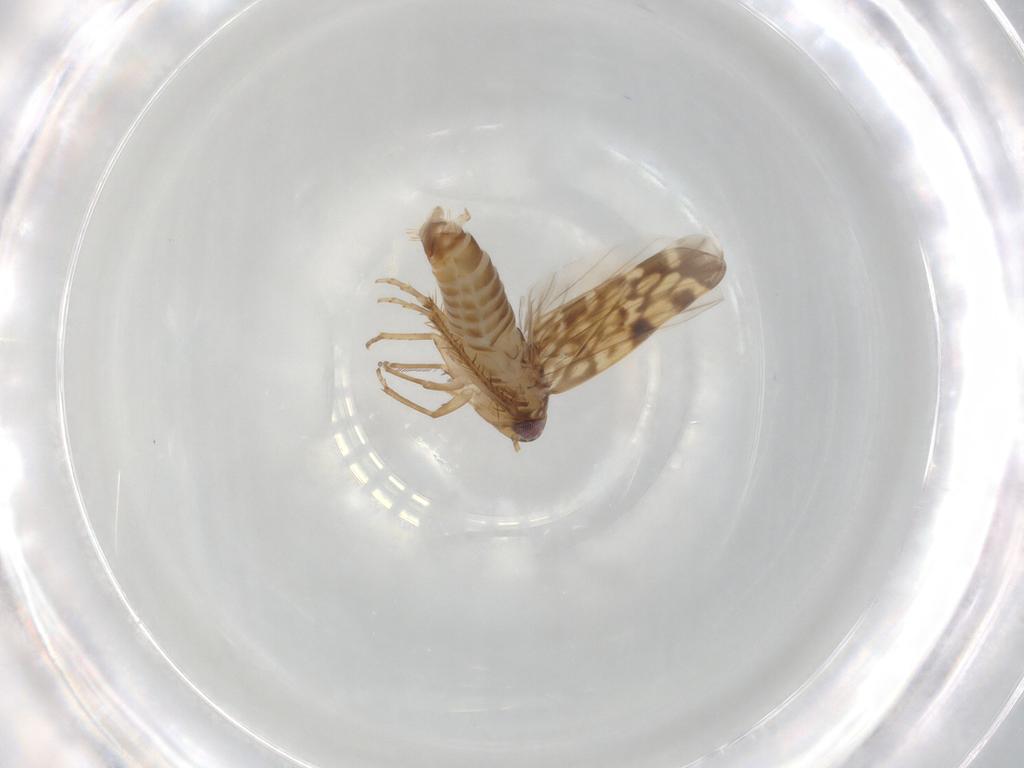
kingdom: Animalia
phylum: Arthropoda
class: Insecta
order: Hemiptera
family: Cicadellidae
